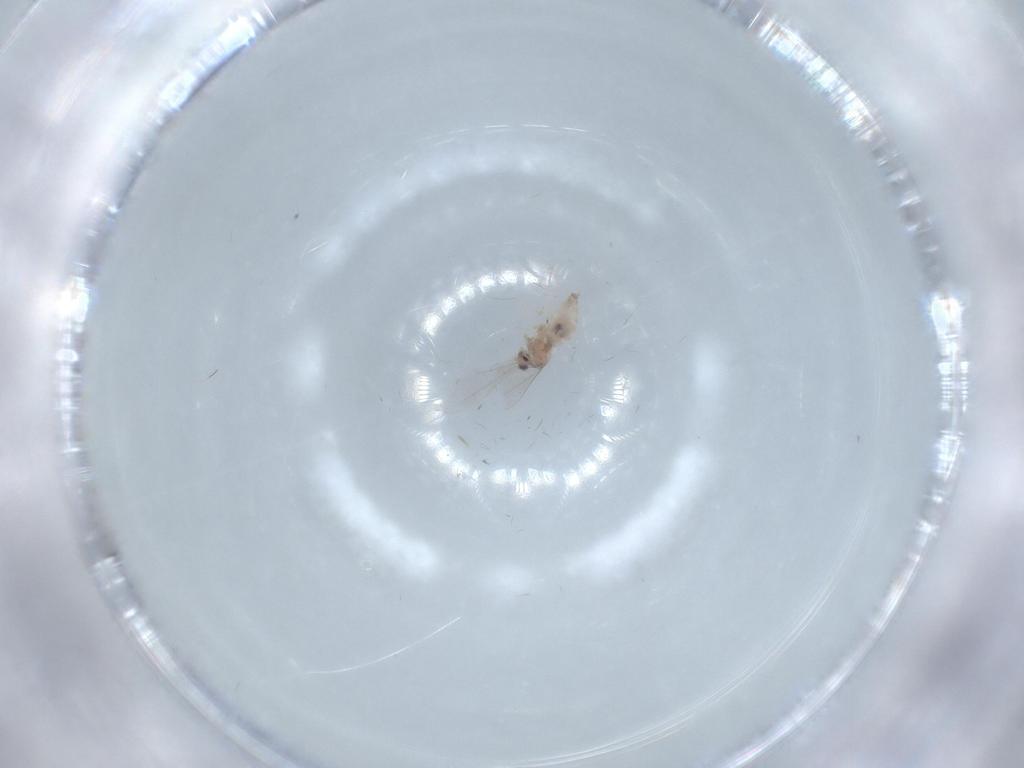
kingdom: Animalia
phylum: Arthropoda
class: Insecta
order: Diptera
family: Cecidomyiidae
